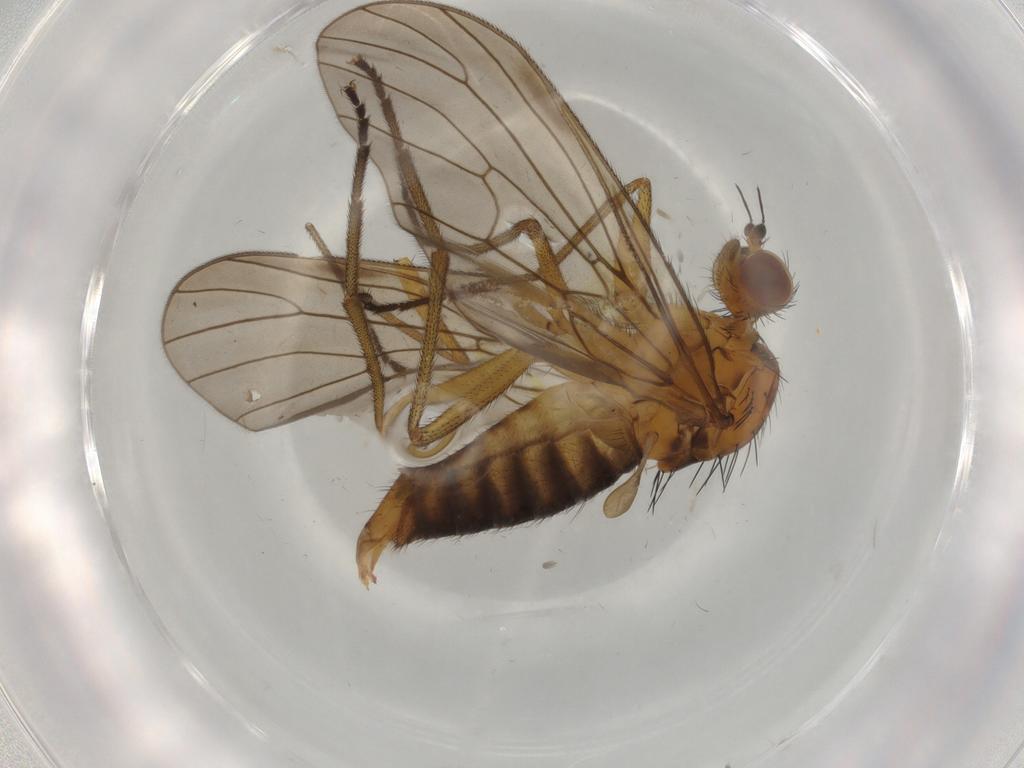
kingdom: Animalia
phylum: Arthropoda
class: Insecta
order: Diptera
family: Brachystomatidae
